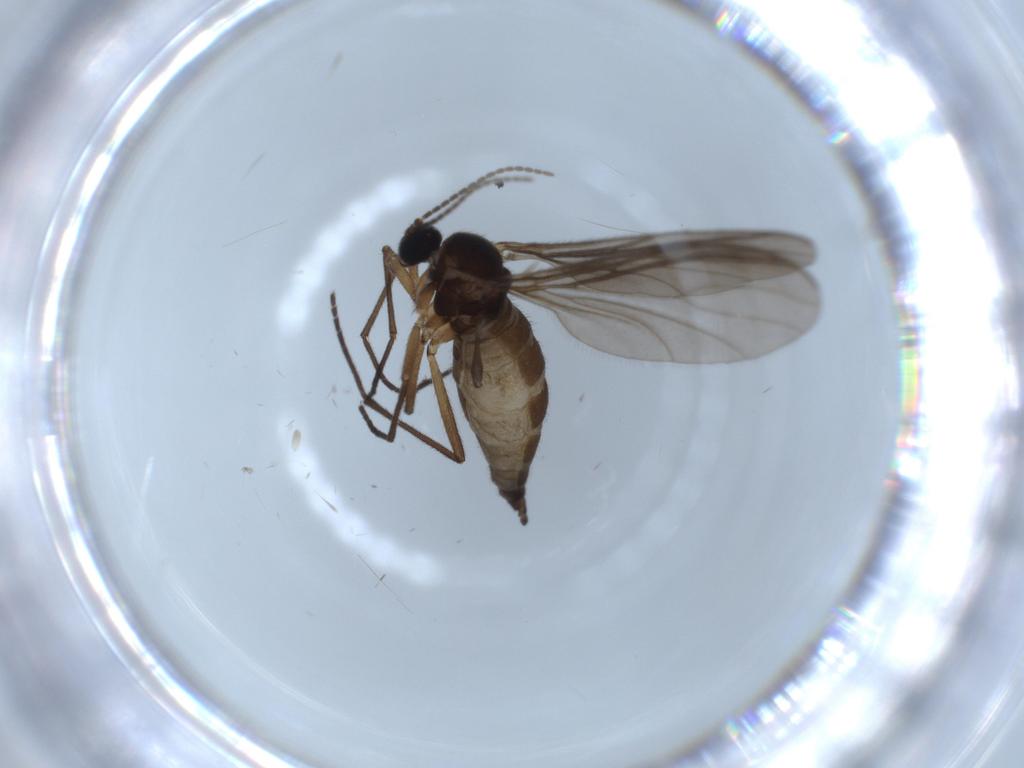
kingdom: Animalia
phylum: Arthropoda
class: Insecta
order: Diptera
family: Sciaridae
